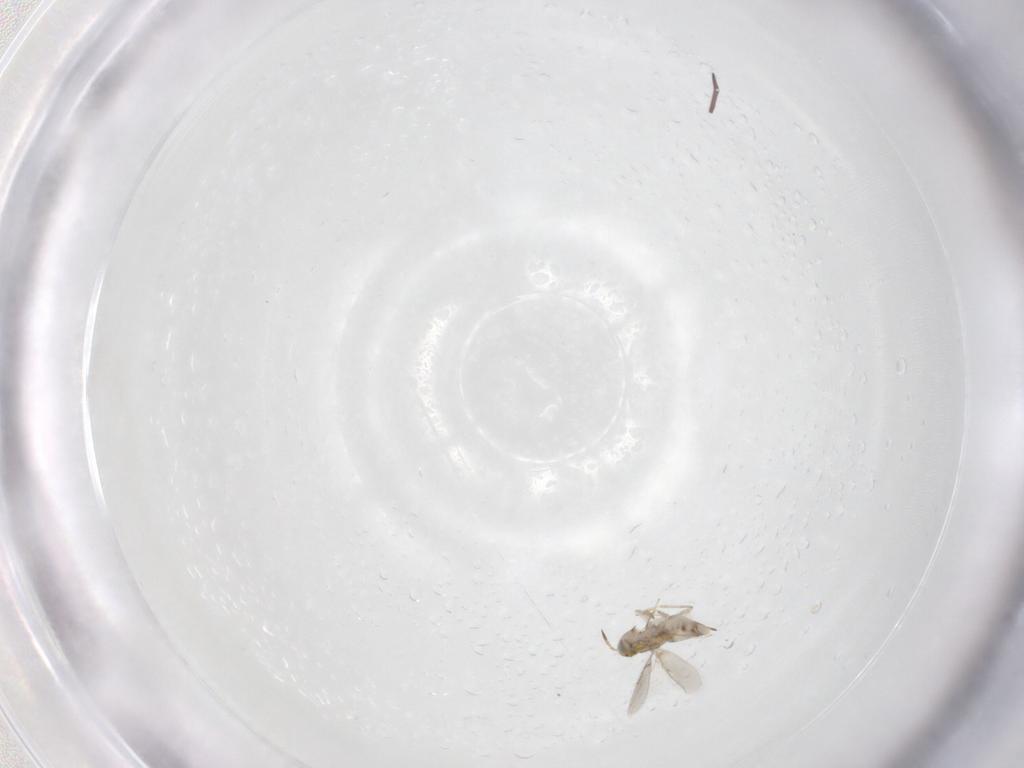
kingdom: Animalia
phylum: Arthropoda
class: Insecta
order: Hymenoptera
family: Aphelinidae
